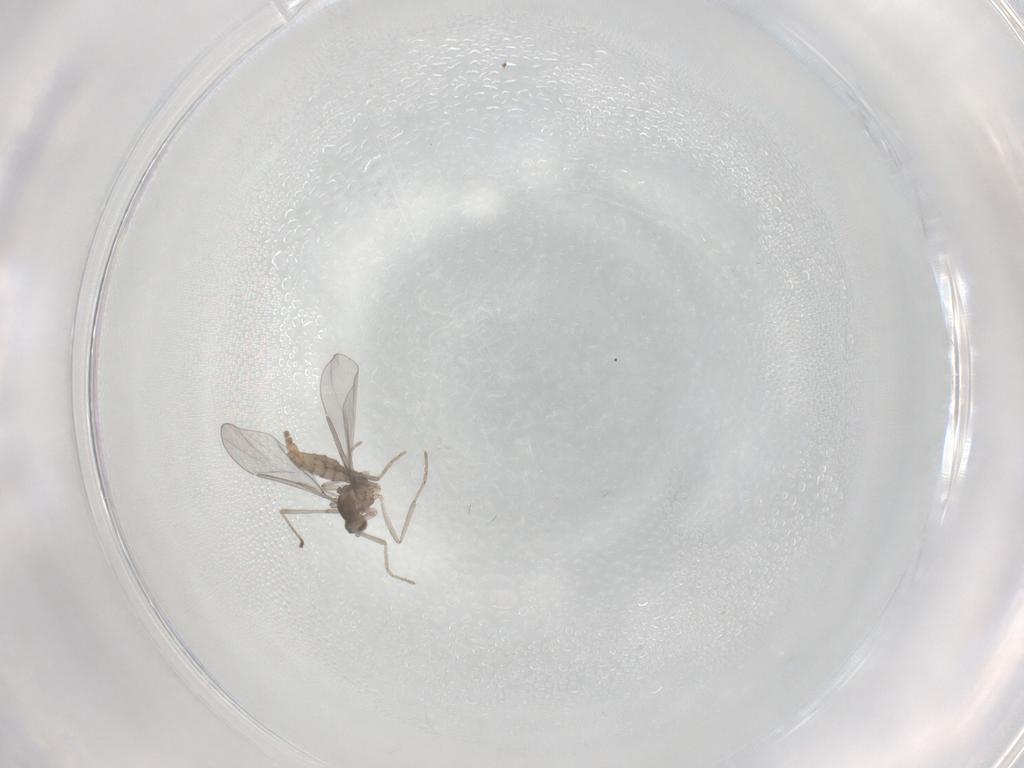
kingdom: Animalia
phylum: Arthropoda
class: Insecta
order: Diptera
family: Cecidomyiidae
